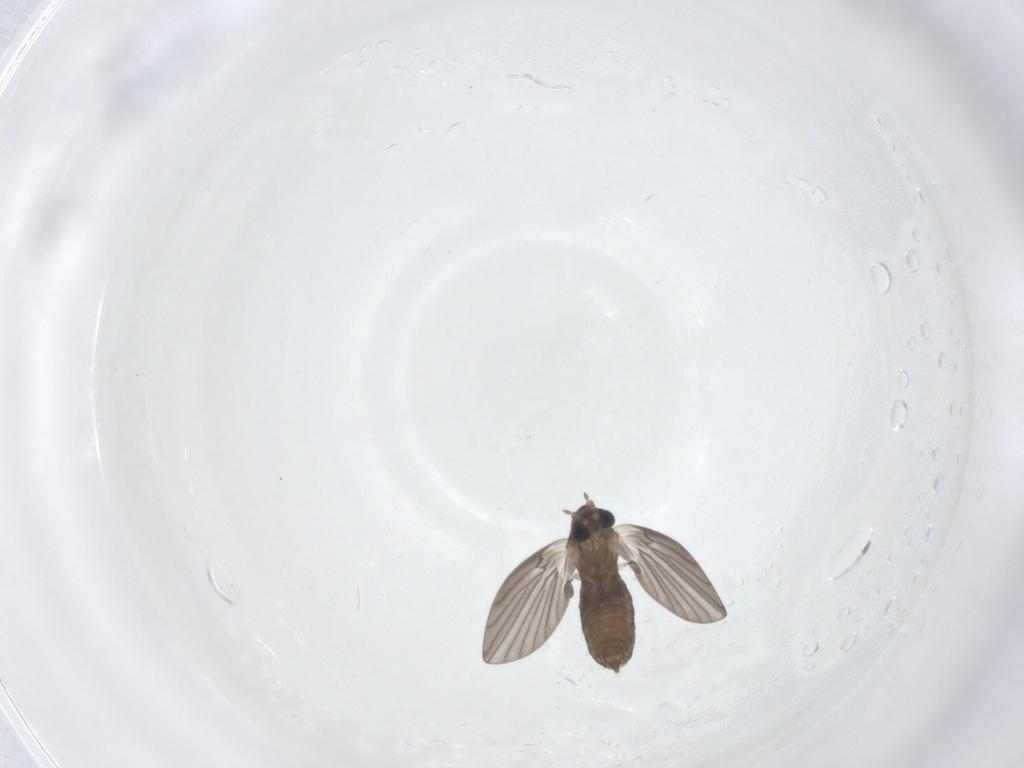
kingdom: Animalia
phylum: Arthropoda
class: Insecta
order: Diptera
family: Psychodidae
